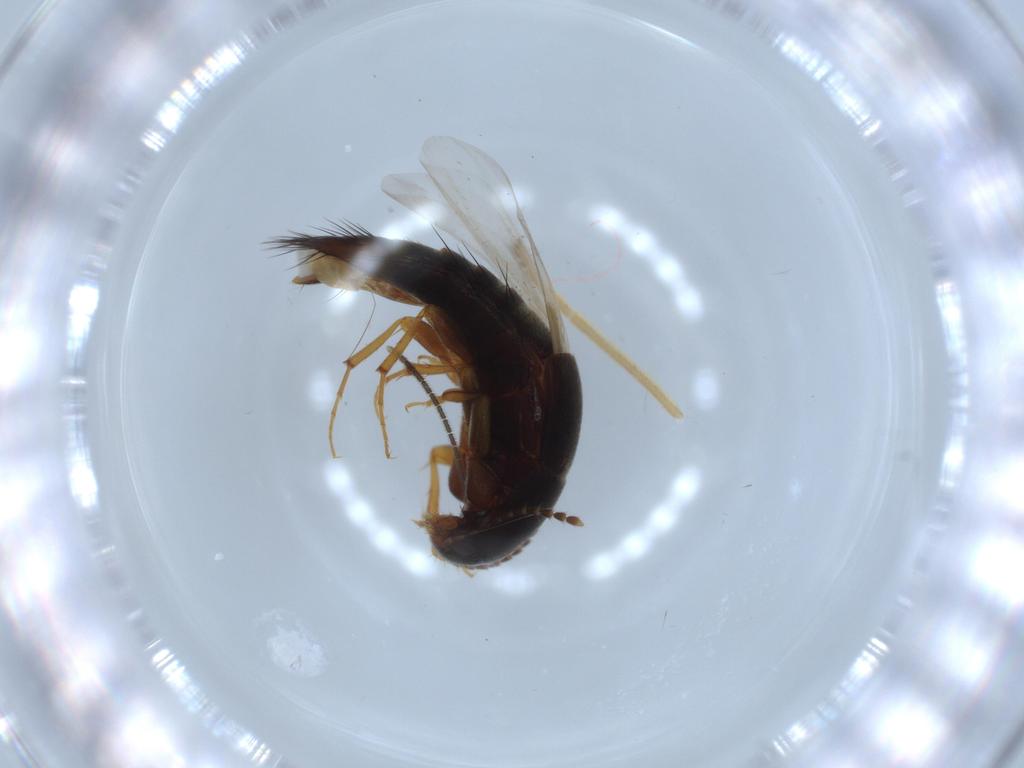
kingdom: Animalia
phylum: Arthropoda
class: Insecta
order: Coleoptera
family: Staphylinidae
